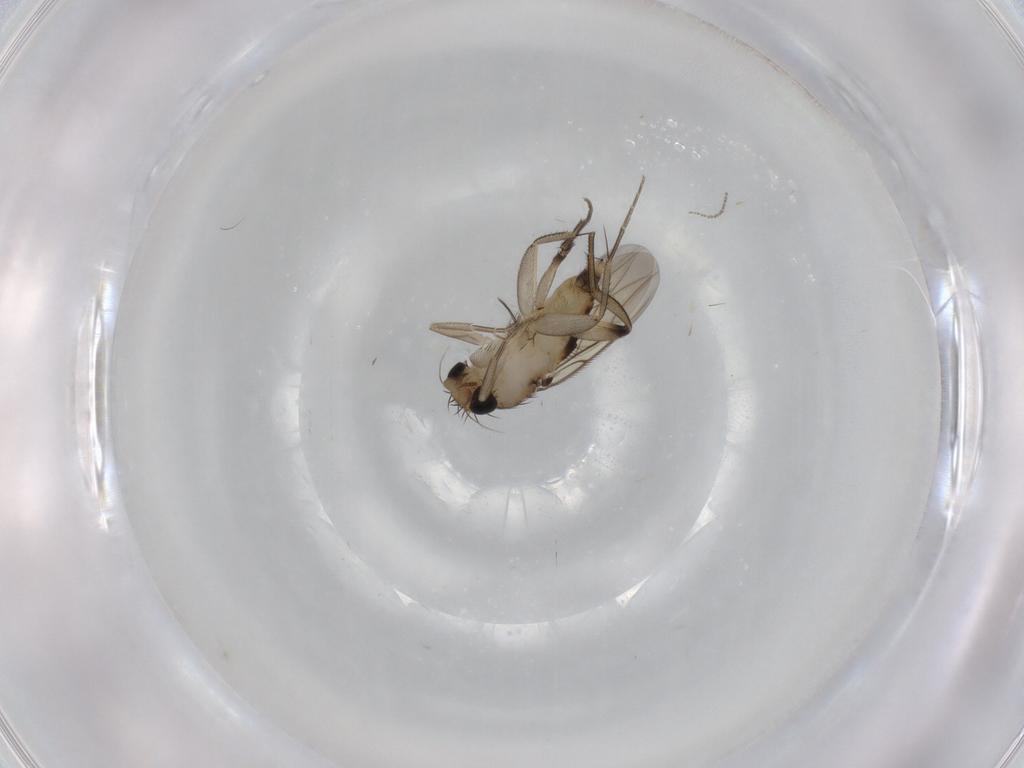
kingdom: Animalia
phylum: Arthropoda
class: Insecta
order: Diptera
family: Phoridae
